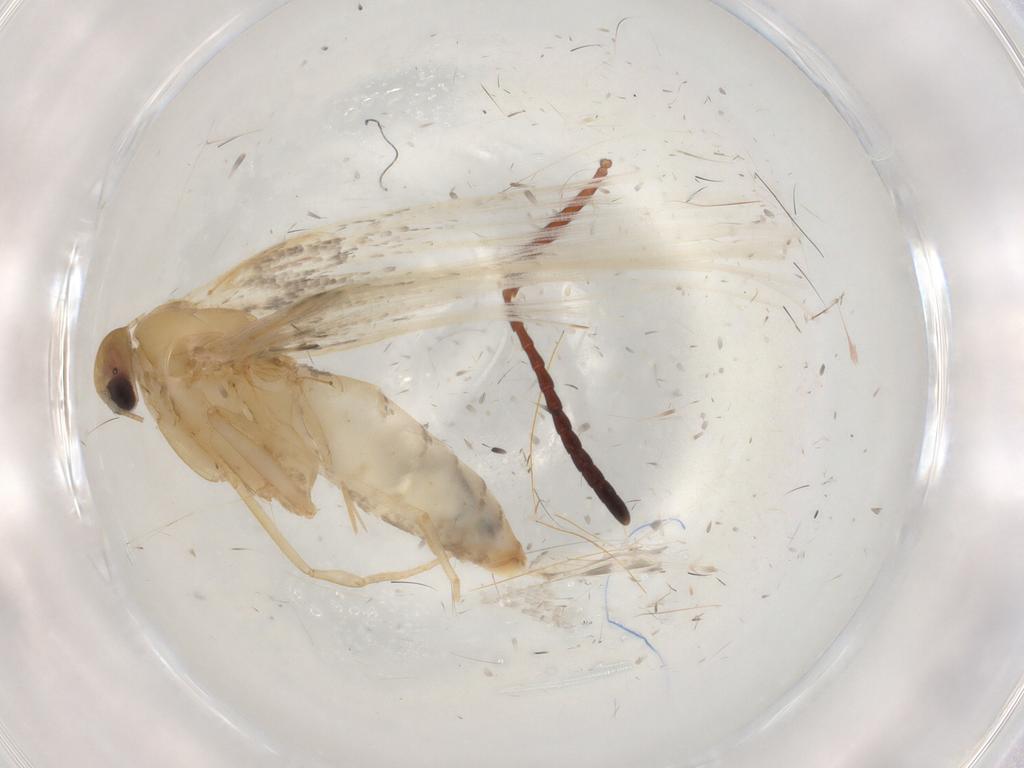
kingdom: Animalia
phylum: Arthropoda
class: Insecta
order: Lepidoptera
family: Alucitidae
